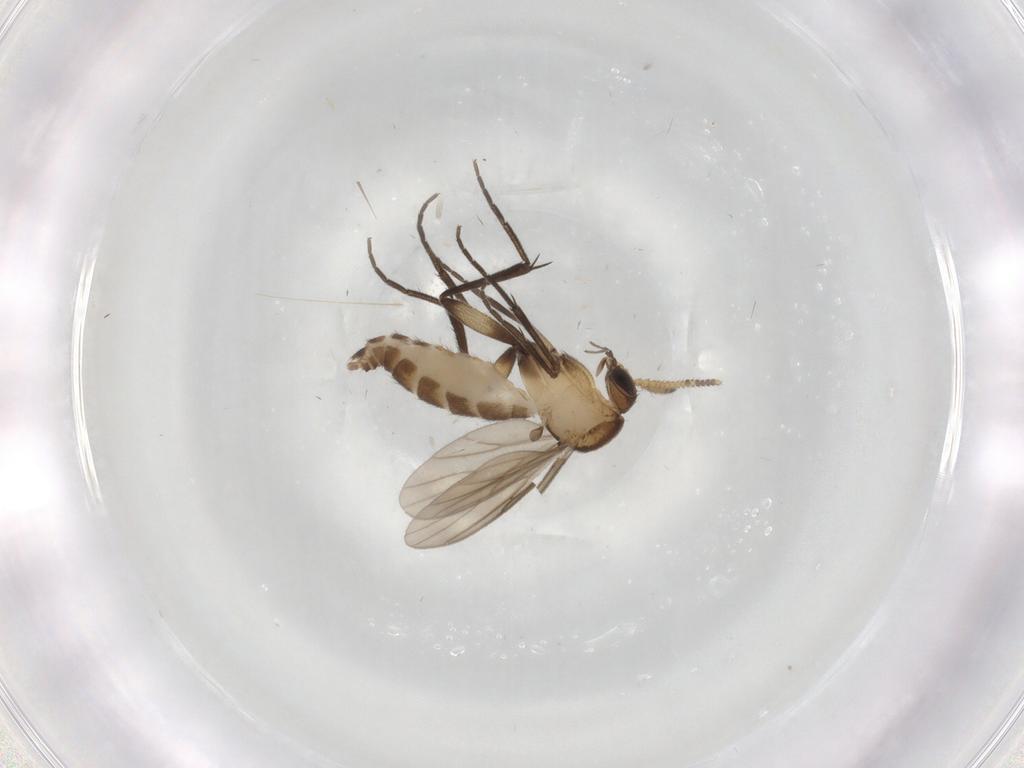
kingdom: Animalia
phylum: Arthropoda
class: Insecta
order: Diptera
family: Phoridae
